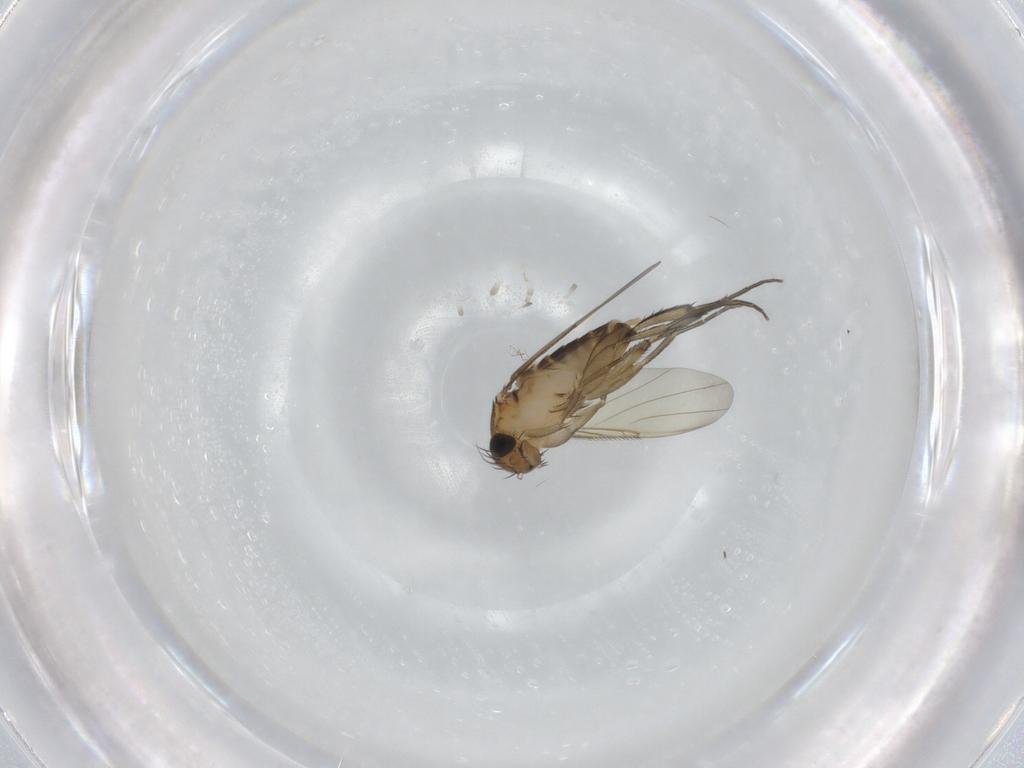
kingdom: Animalia
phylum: Arthropoda
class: Insecta
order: Diptera
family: Phoridae
